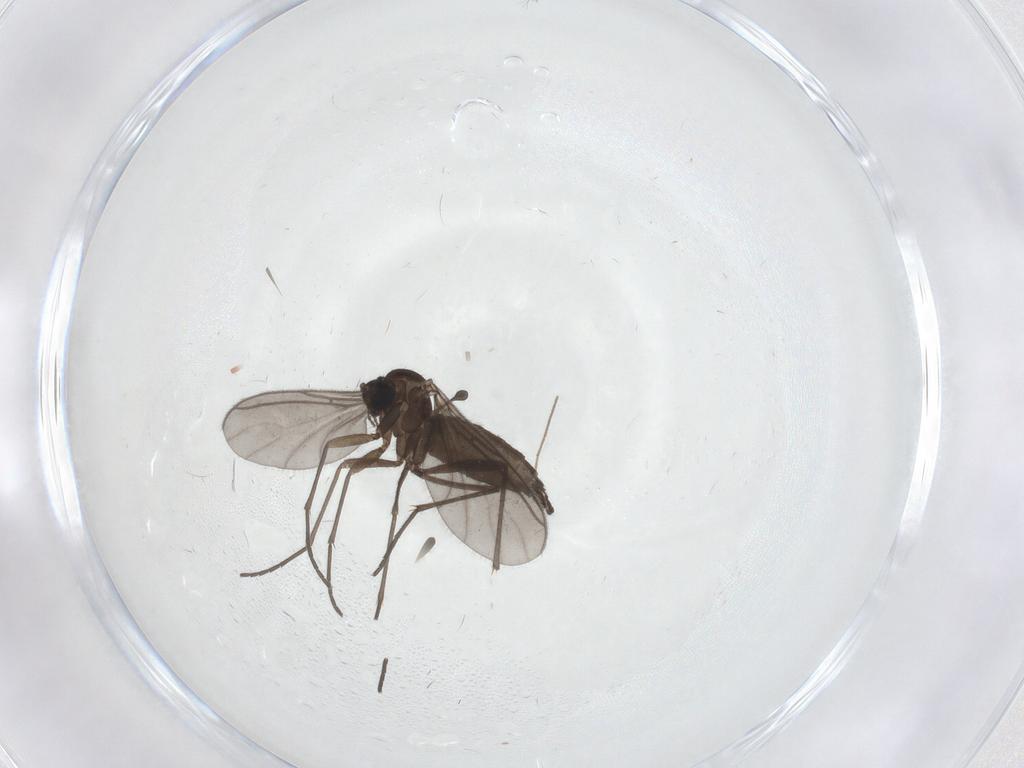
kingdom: Animalia
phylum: Arthropoda
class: Insecta
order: Diptera
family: Sciaridae
